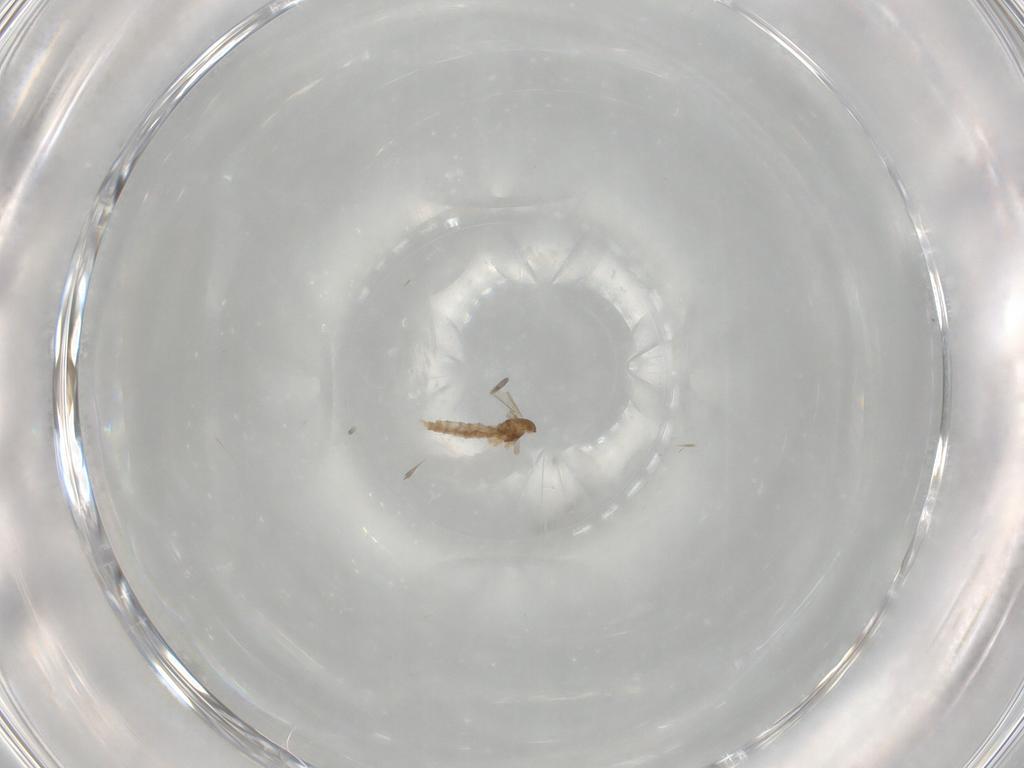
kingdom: Animalia
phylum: Arthropoda
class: Insecta
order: Diptera
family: Cecidomyiidae
